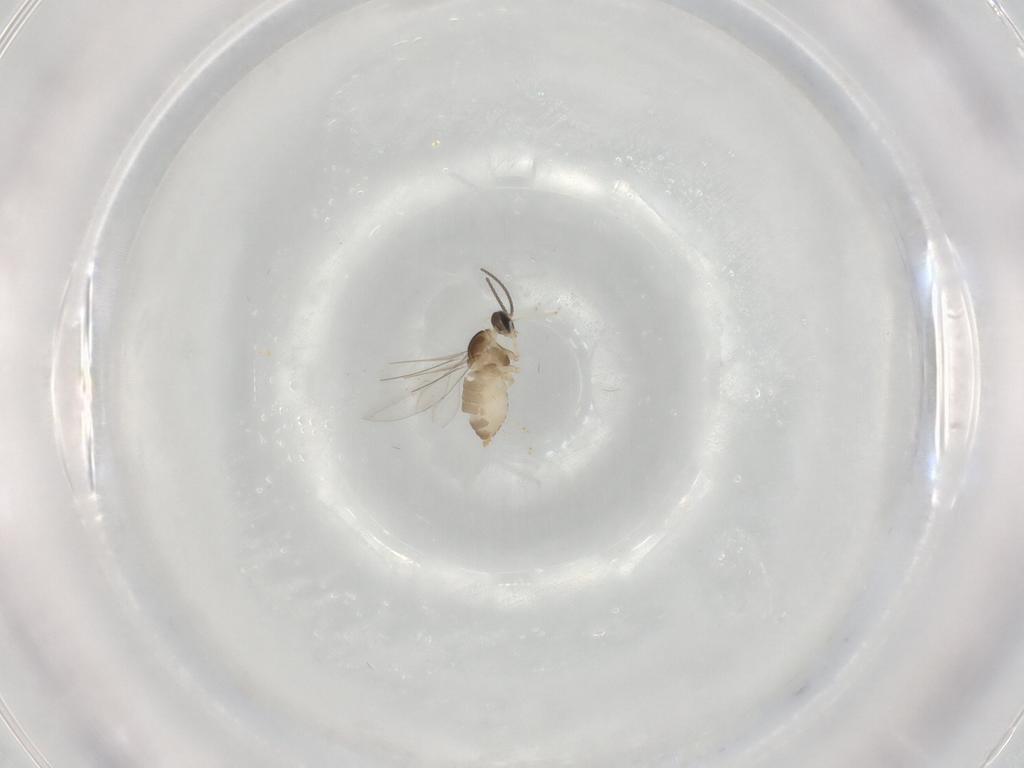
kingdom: Animalia
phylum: Arthropoda
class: Insecta
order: Diptera
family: Cecidomyiidae
